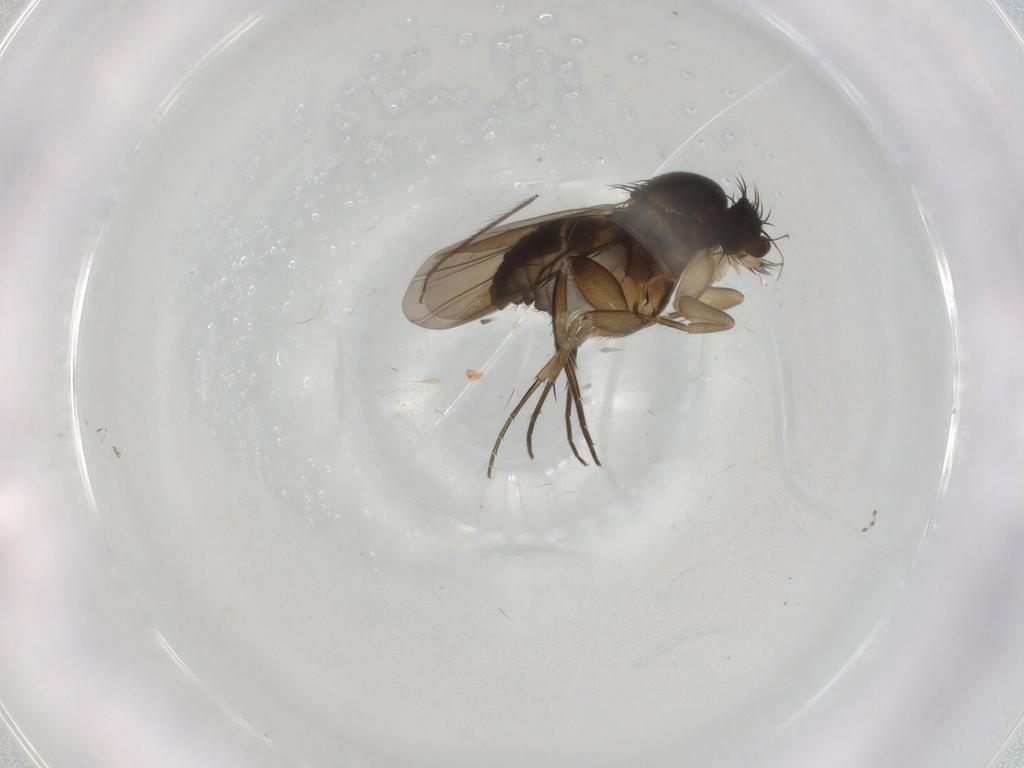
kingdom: Animalia
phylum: Arthropoda
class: Insecta
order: Diptera
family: Phoridae
